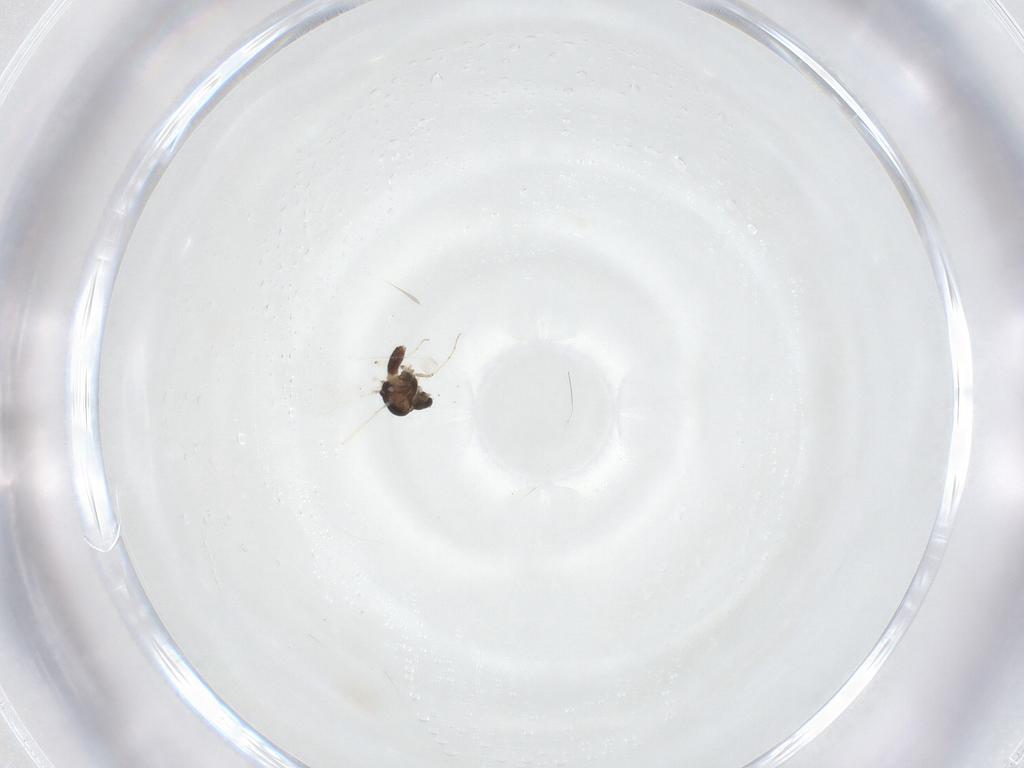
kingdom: Animalia
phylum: Arthropoda
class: Insecta
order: Diptera
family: Chironomidae
